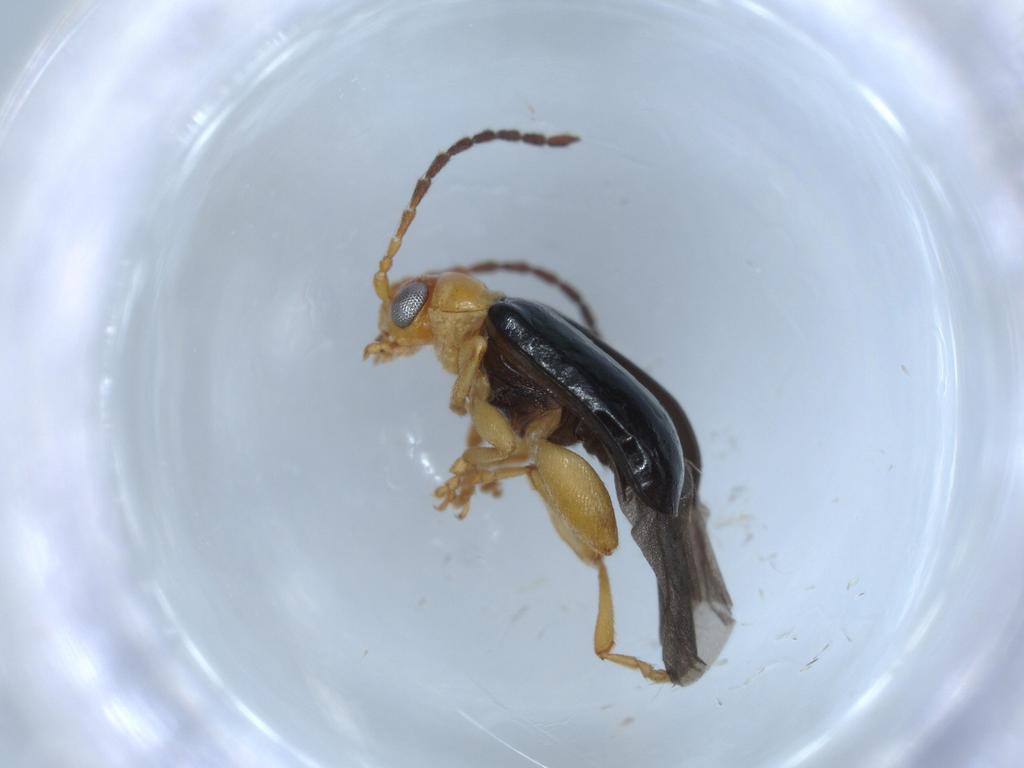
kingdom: Animalia
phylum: Arthropoda
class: Insecta
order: Coleoptera
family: Chrysomelidae
